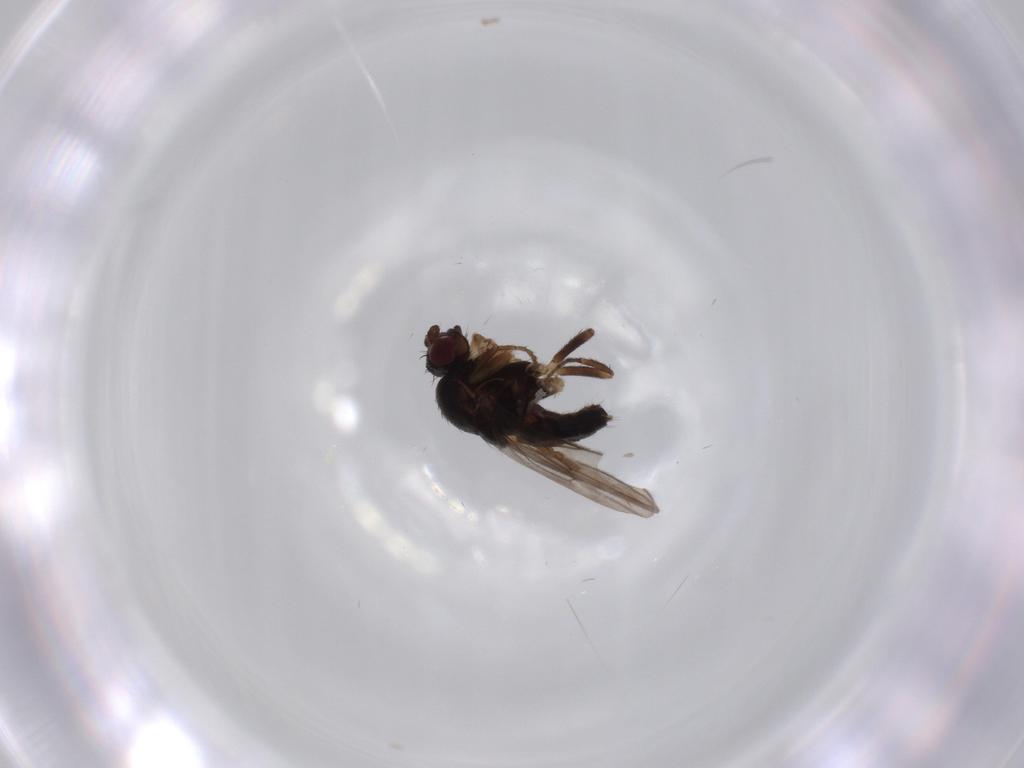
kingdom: Animalia
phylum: Arthropoda
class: Insecta
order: Diptera
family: Sphaeroceridae
